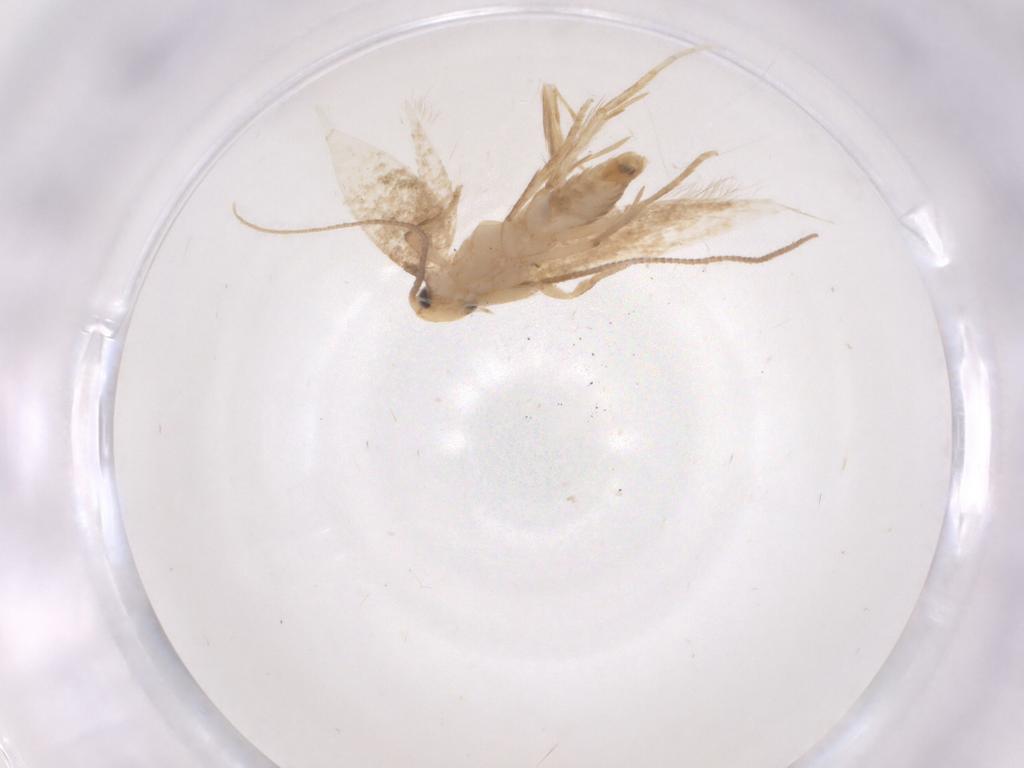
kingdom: Animalia
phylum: Arthropoda
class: Insecta
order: Lepidoptera
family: Tineidae
